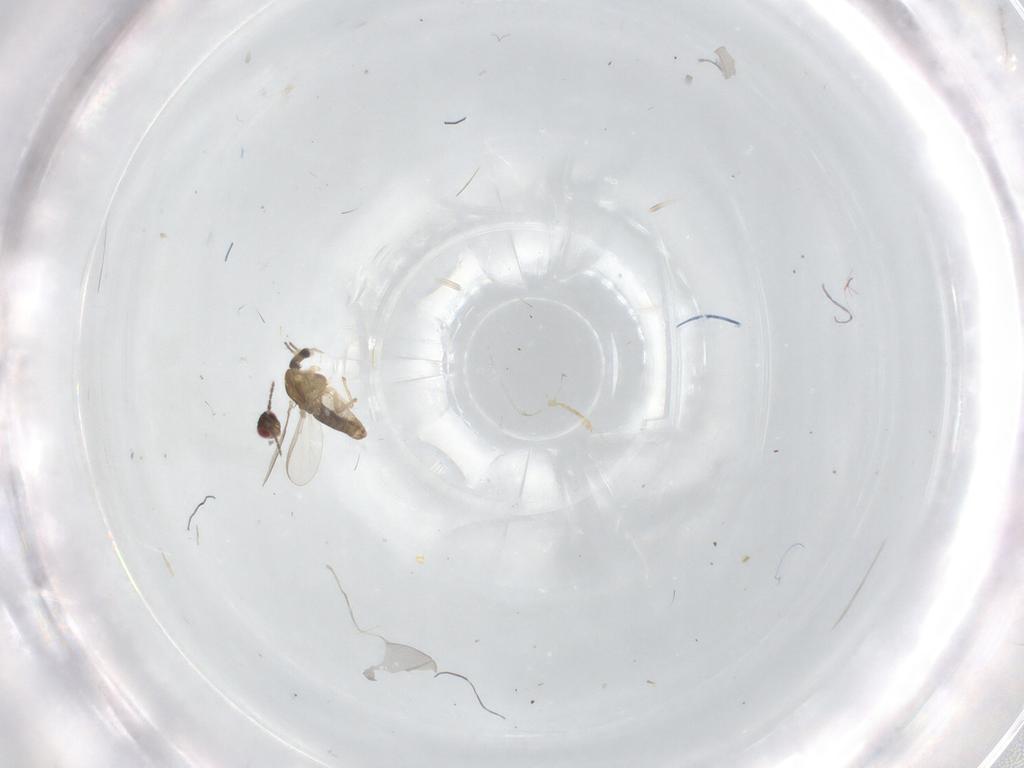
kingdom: Animalia
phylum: Arthropoda
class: Insecta
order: Diptera
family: Chironomidae
